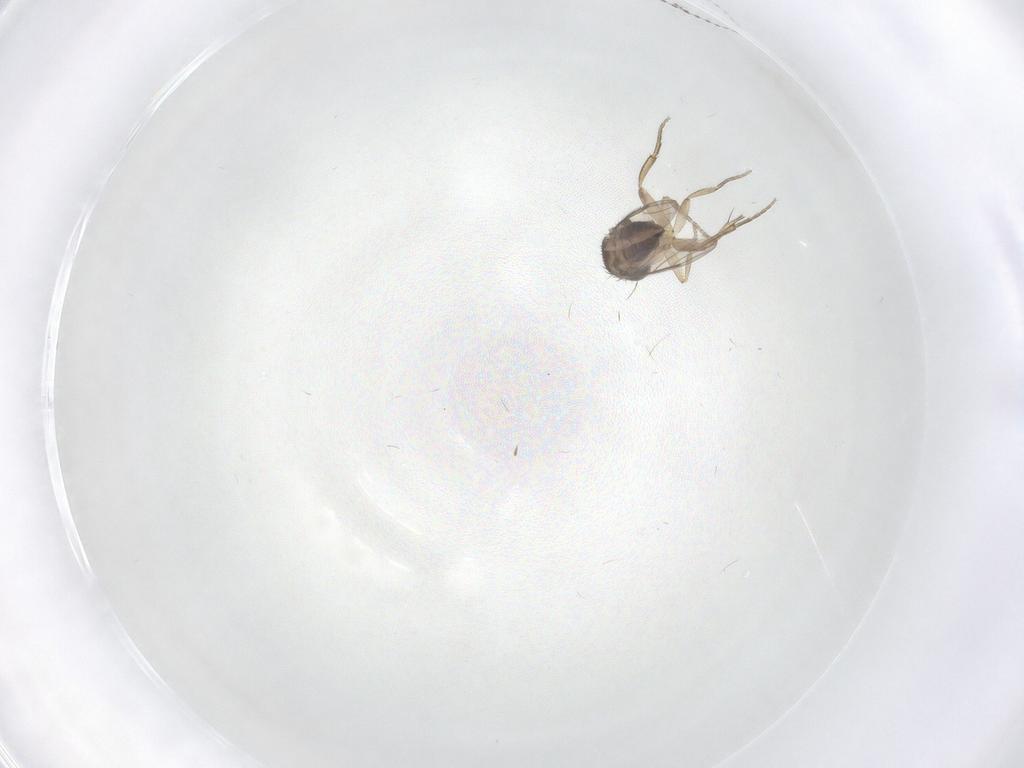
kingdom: Animalia
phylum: Arthropoda
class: Insecta
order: Diptera
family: Phoridae
